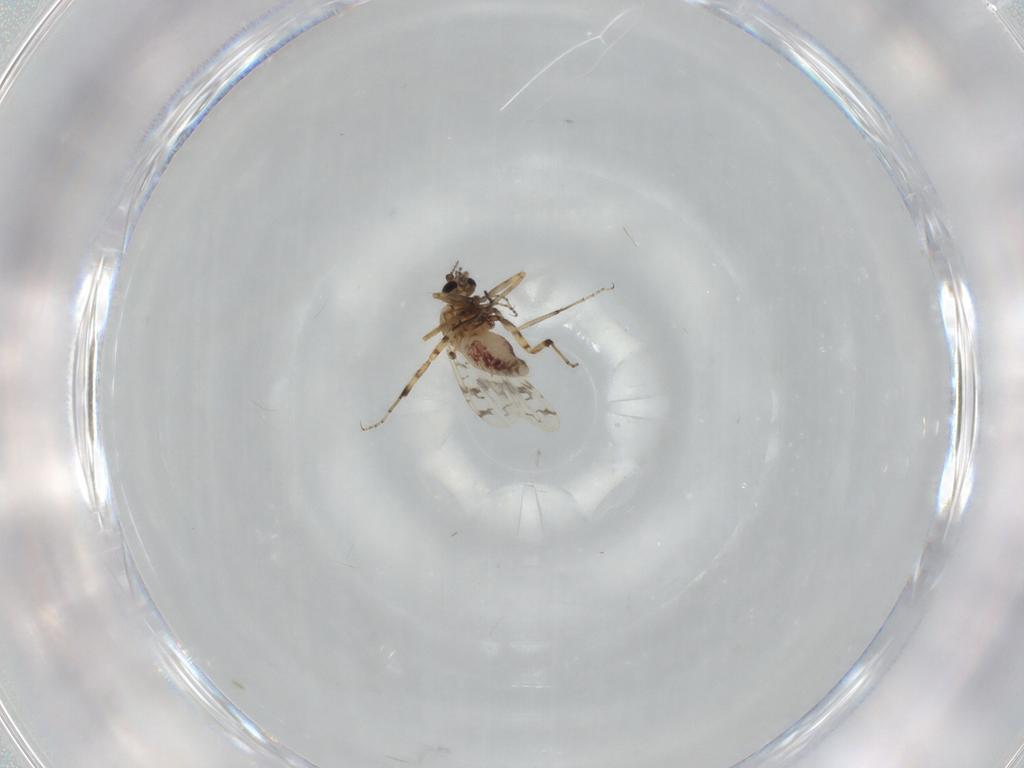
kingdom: Animalia
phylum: Arthropoda
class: Insecta
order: Diptera
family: Ceratopogonidae
